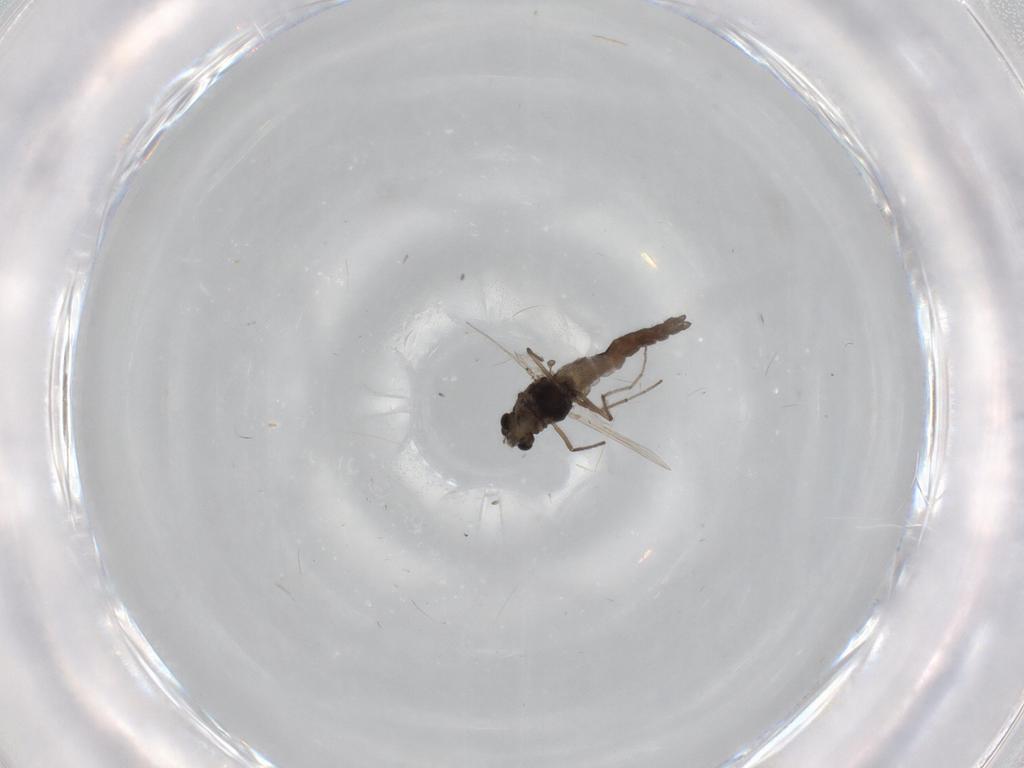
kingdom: Animalia
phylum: Arthropoda
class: Insecta
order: Diptera
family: Chironomidae
